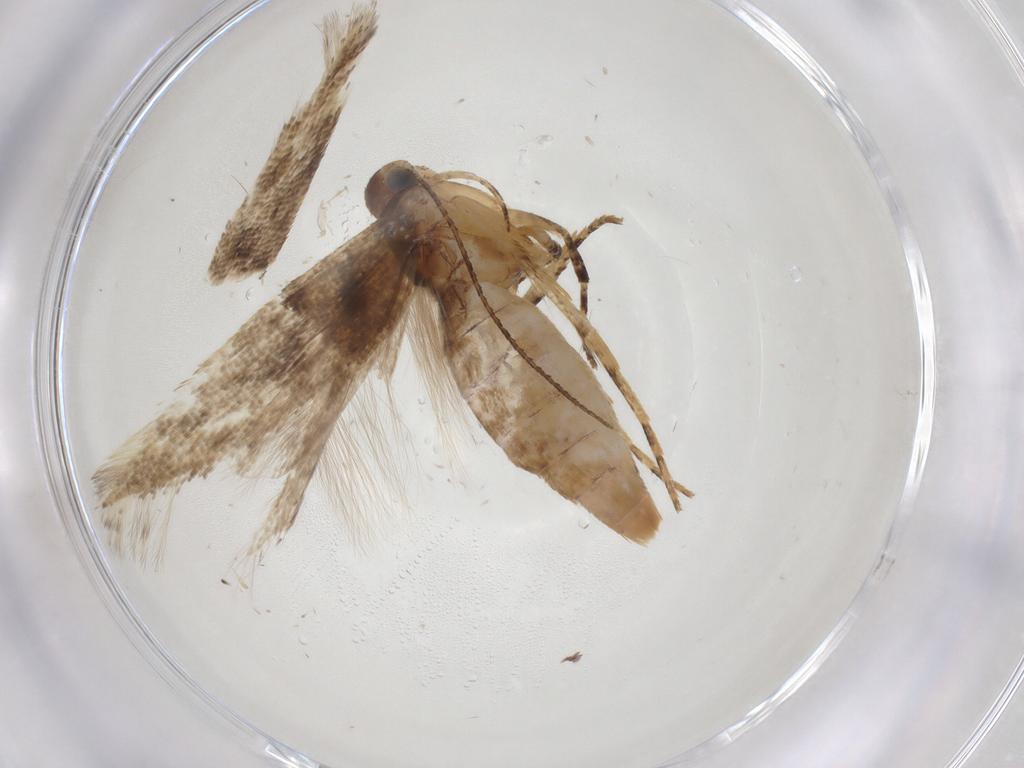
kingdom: Animalia
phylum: Arthropoda
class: Insecta
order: Lepidoptera
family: Gelechiidae
